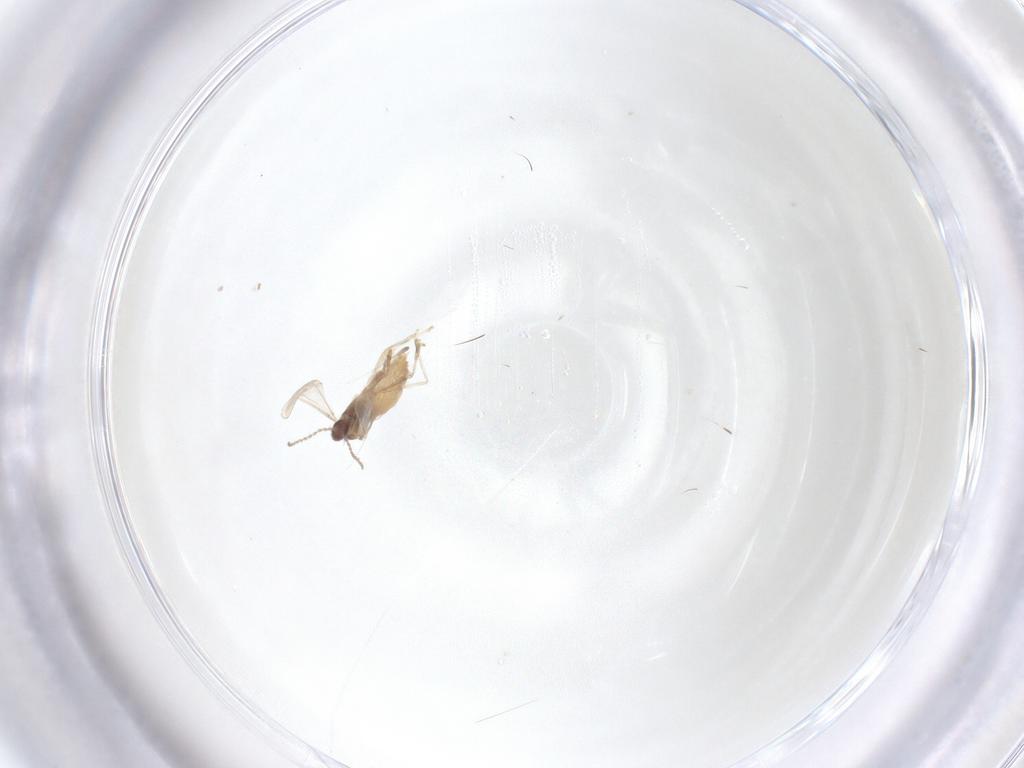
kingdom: Animalia
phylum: Arthropoda
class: Insecta
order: Diptera
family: Cecidomyiidae
